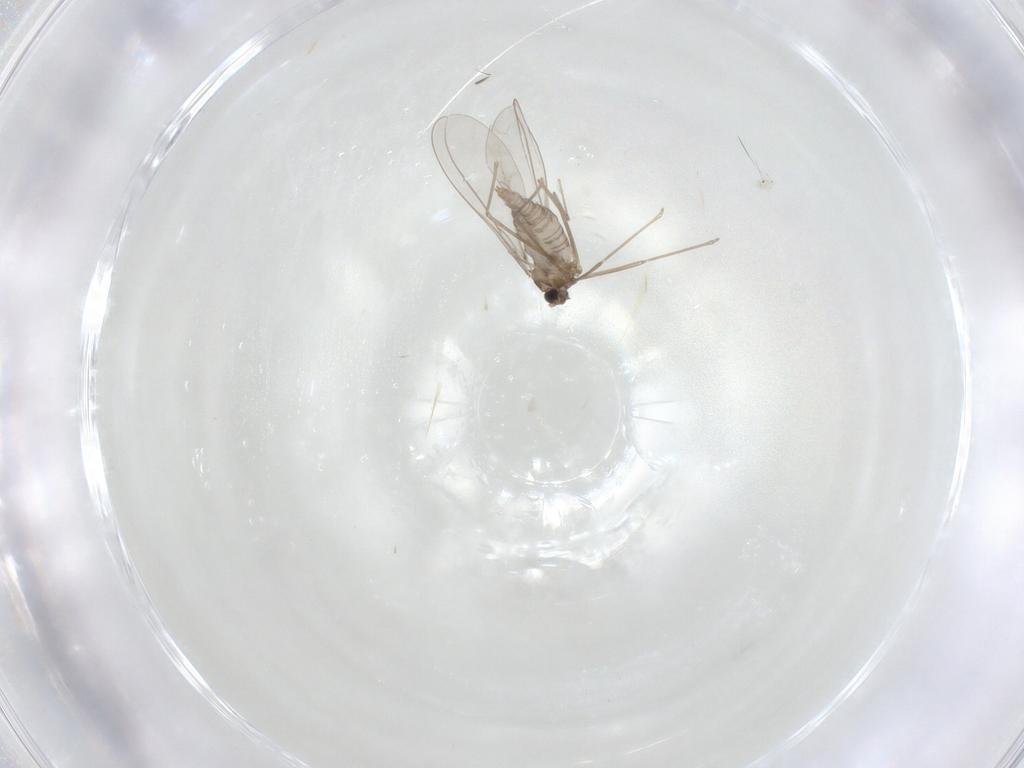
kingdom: Animalia
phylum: Arthropoda
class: Insecta
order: Diptera
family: Cecidomyiidae
